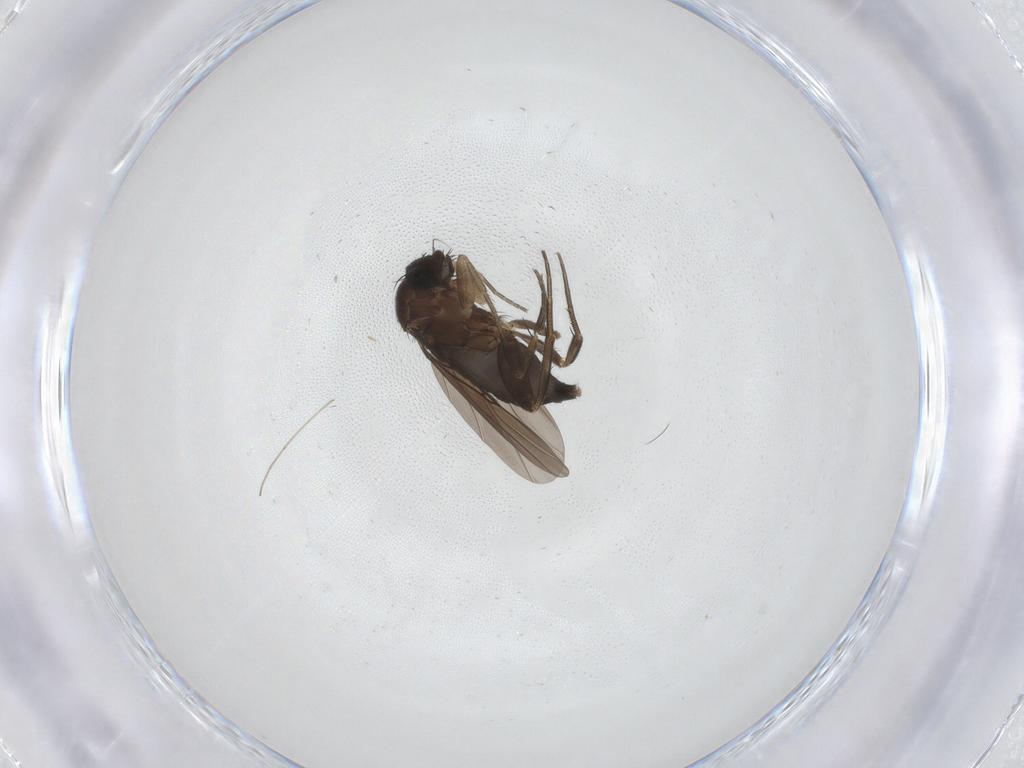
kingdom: Animalia
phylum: Arthropoda
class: Insecta
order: Diptera
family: Phoridae
